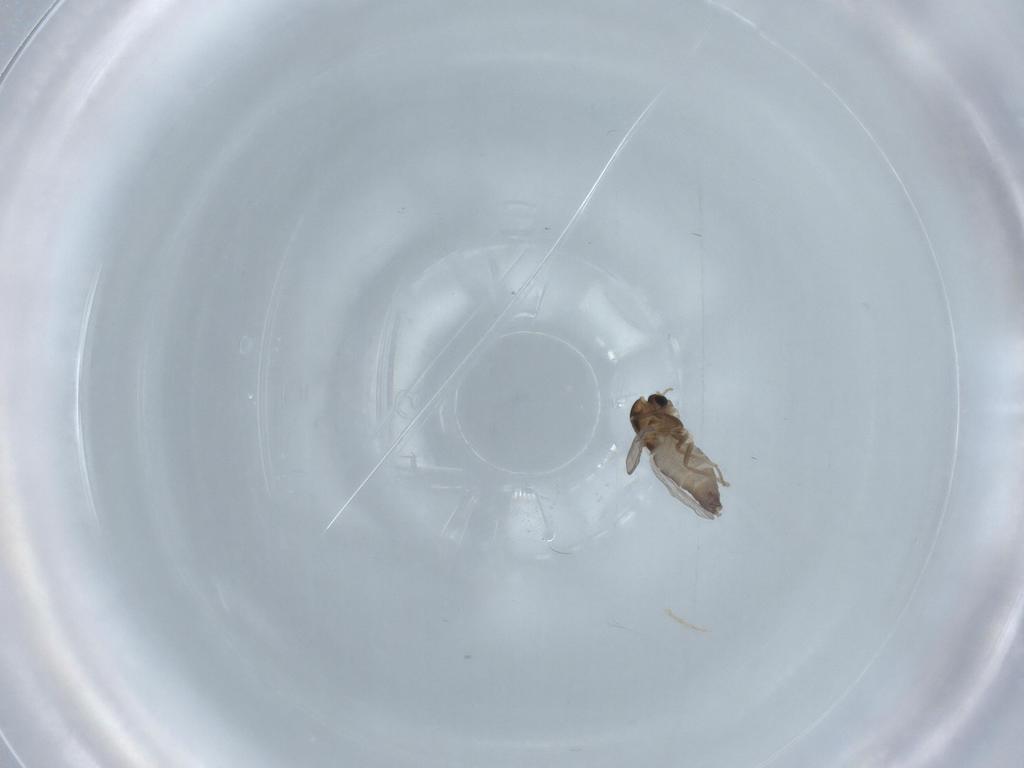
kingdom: Animalia
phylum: Arthropoda
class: Insecta
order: Diptera
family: Chironomidae
